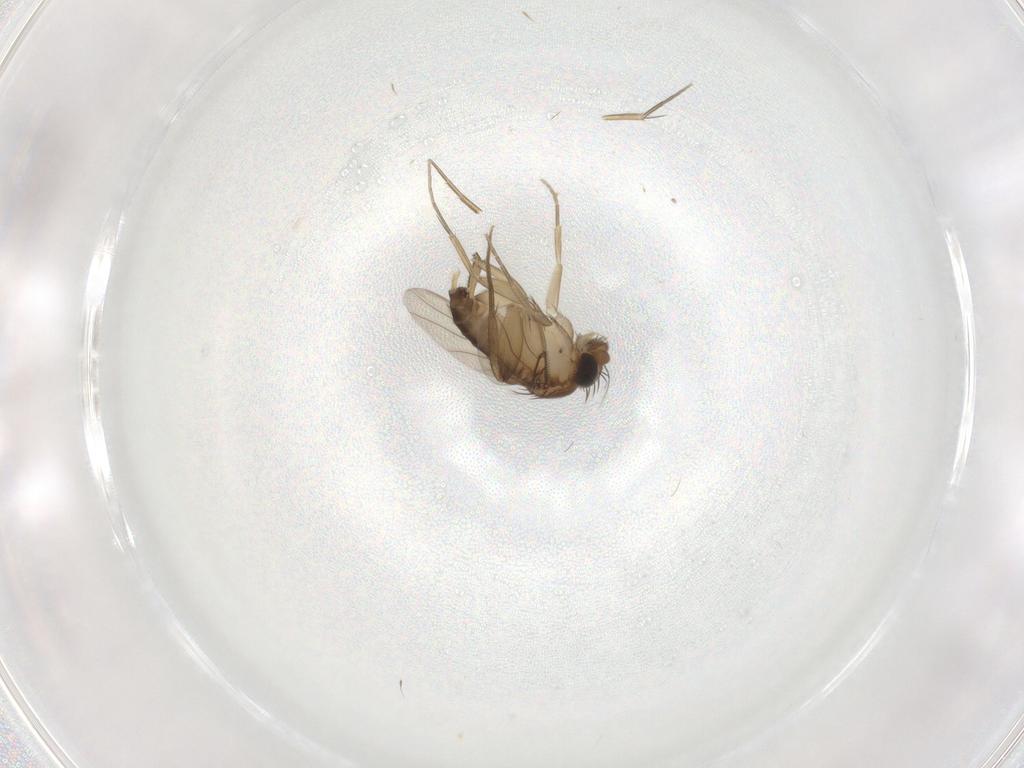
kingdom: Animalia
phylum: Arthropoda
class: Insecta
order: Diptera
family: Phoridae
